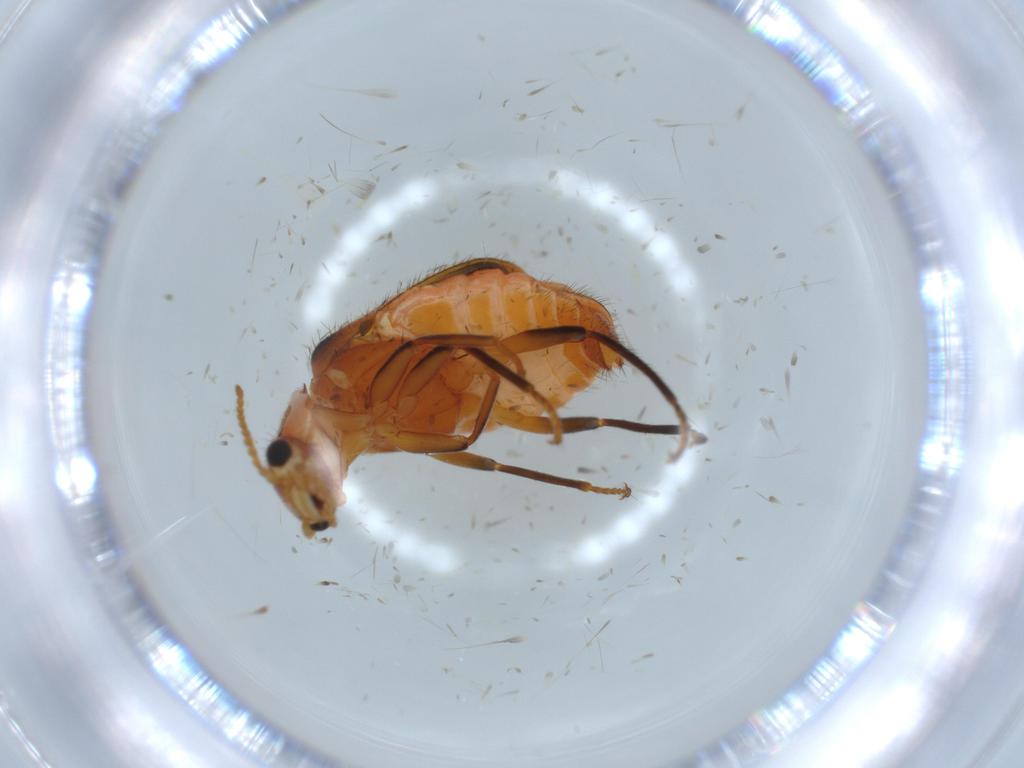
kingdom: Animalia
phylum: Arthropoda
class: Insecta
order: Coleoptera
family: Melyridae
